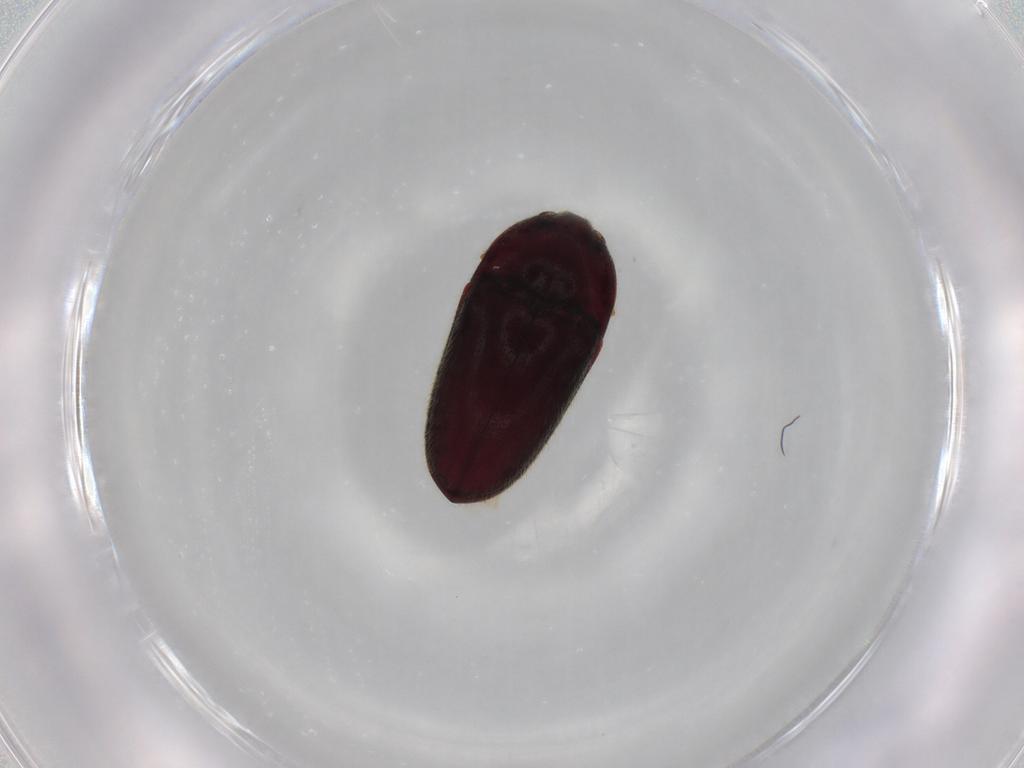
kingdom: Animalia
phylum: Arthropoda
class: Insecta
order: Coleoptera
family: Throscidae
